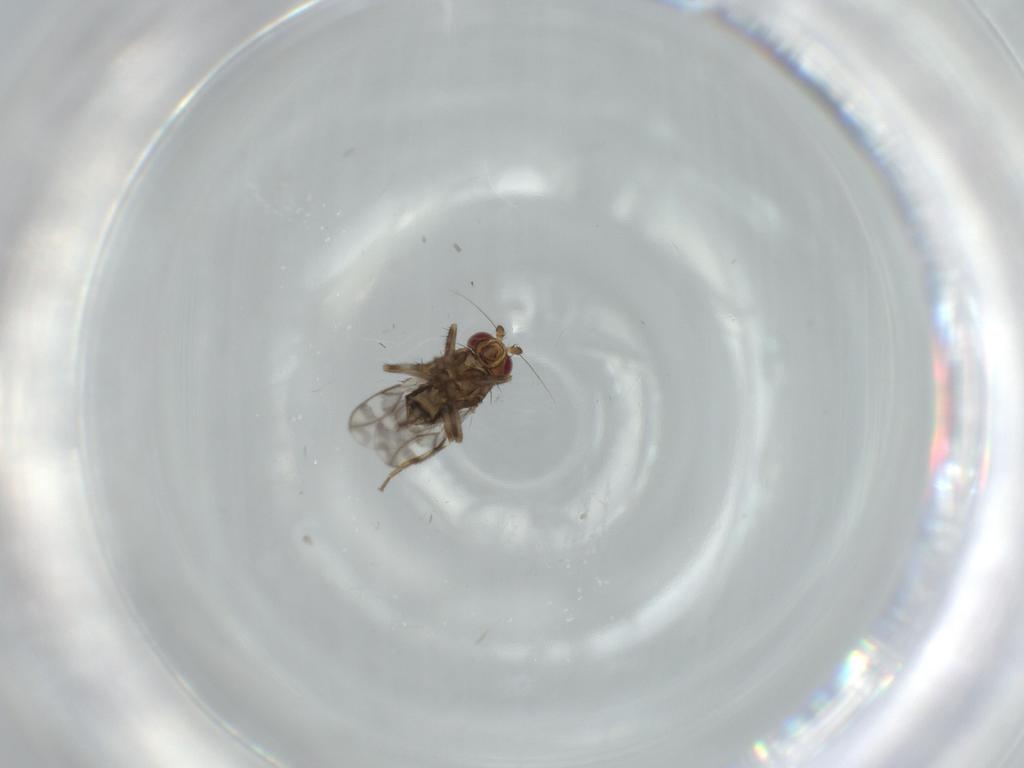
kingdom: Animalia
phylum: Arthropoda
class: Insecta
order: Diptera
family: Sphaeroceridae
